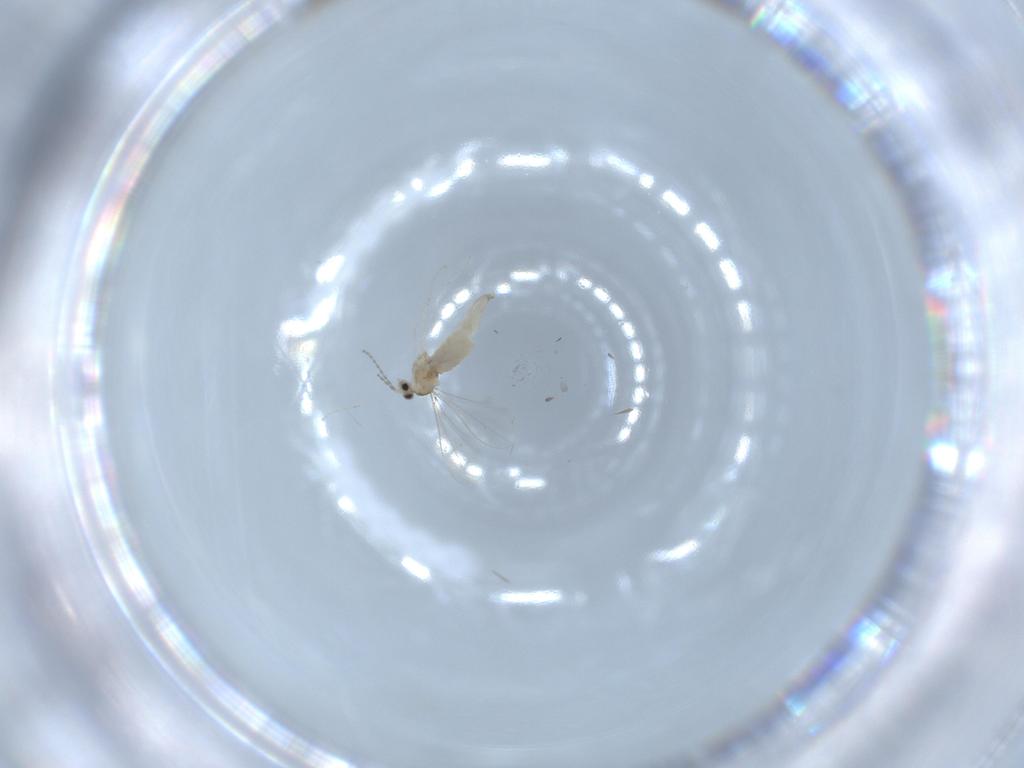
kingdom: Animalia
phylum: Arthropoda
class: Insecta
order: Diptera
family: Cecidomyiidae
